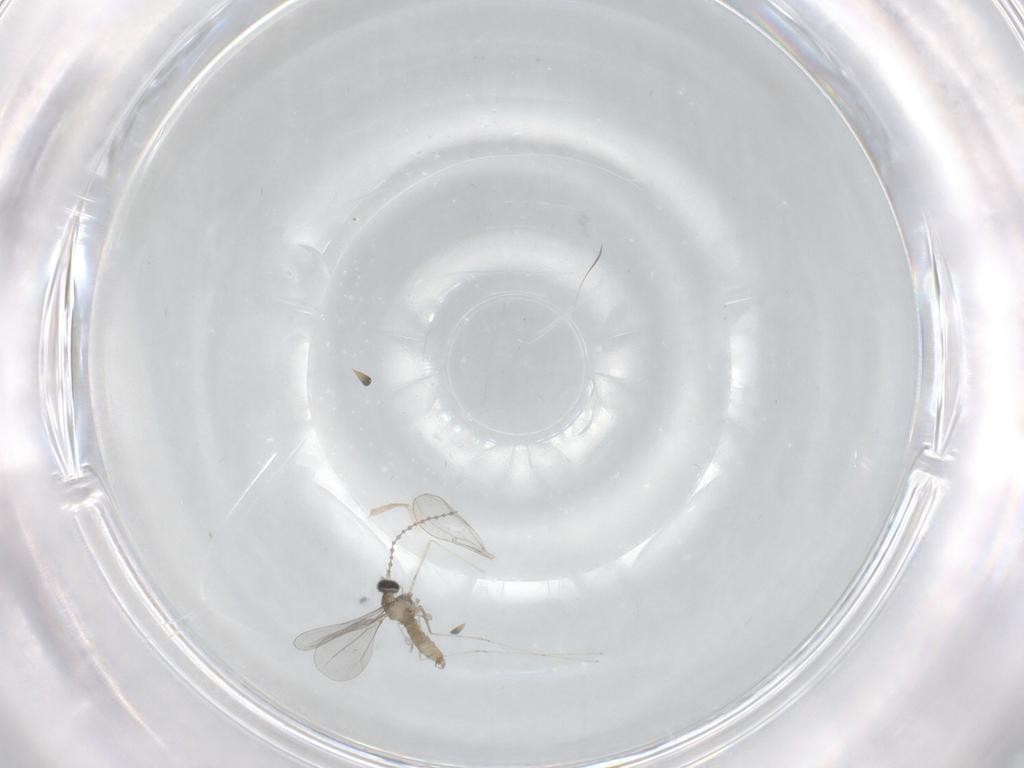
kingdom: Animalia
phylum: Arthropoda
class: Insecta
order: Diptera
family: Cecidomyiidae
